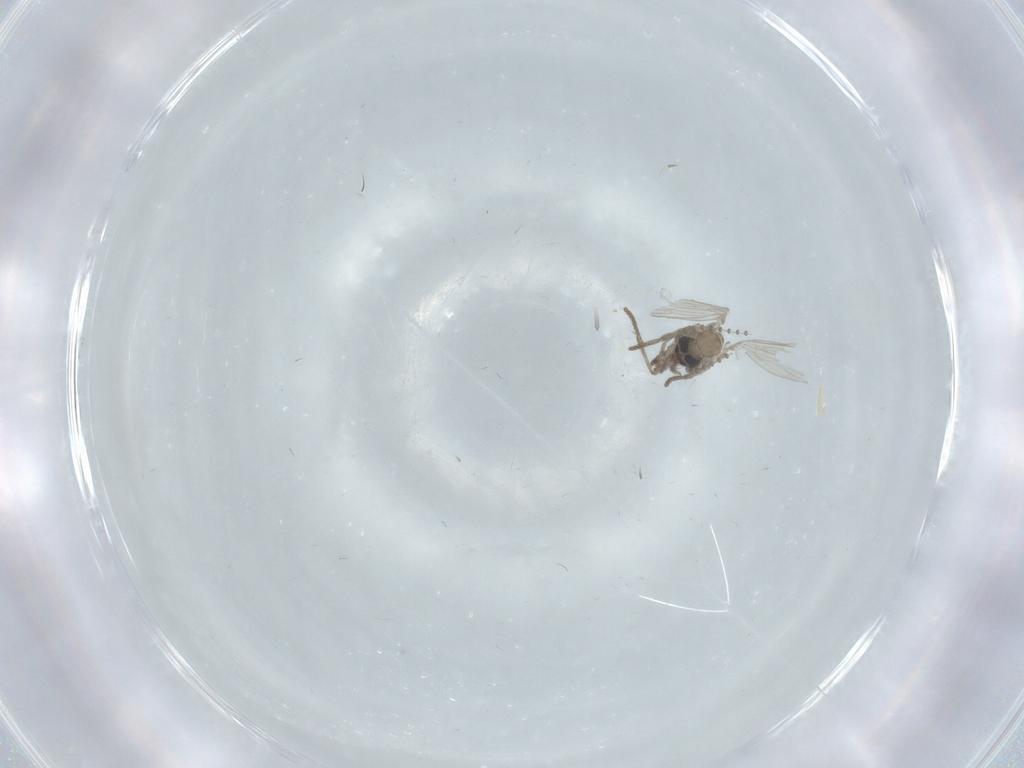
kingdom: Animalia
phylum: Arthropoda
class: Insecta
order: Diptera
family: Psychodidae
